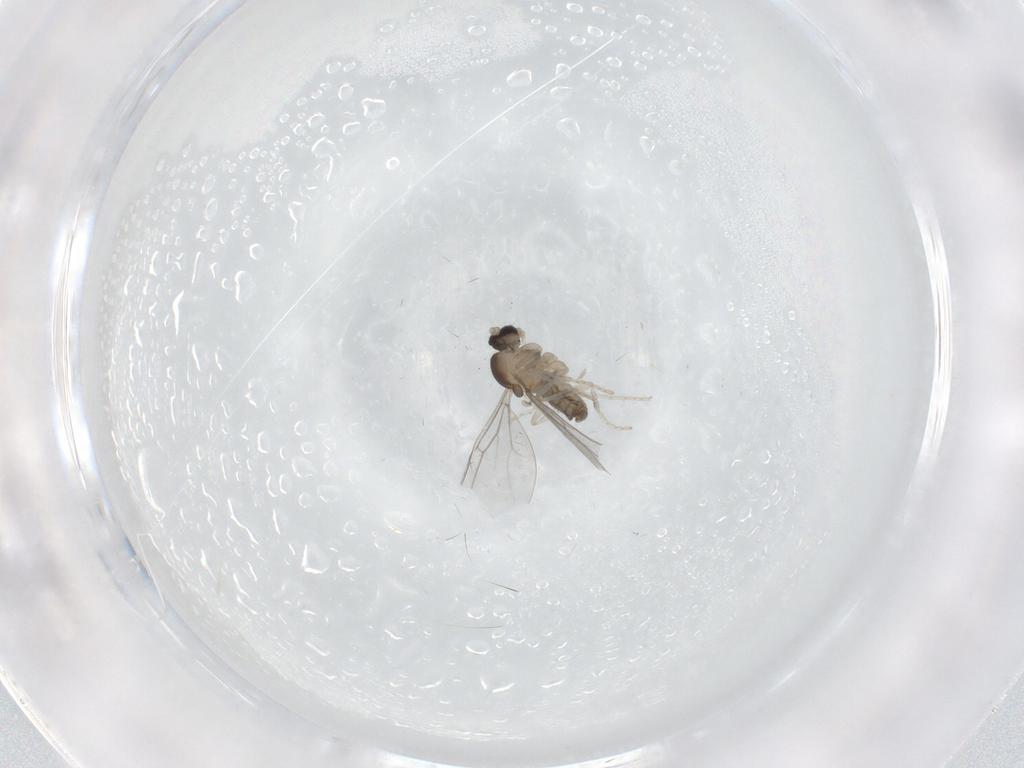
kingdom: Animalia
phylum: Arthropoda
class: Insecta
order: Diptera
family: Cecidomyiidae
